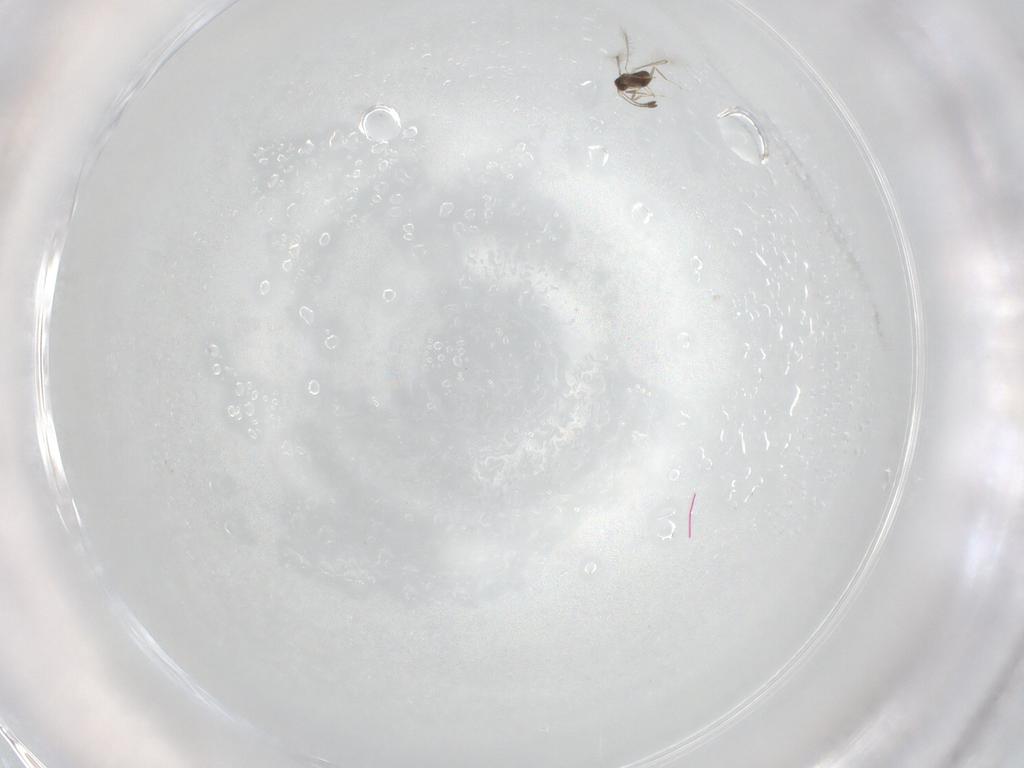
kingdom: Animalia
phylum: Arthropoda
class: Insecta
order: Hymenoptera
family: Mymaridae
